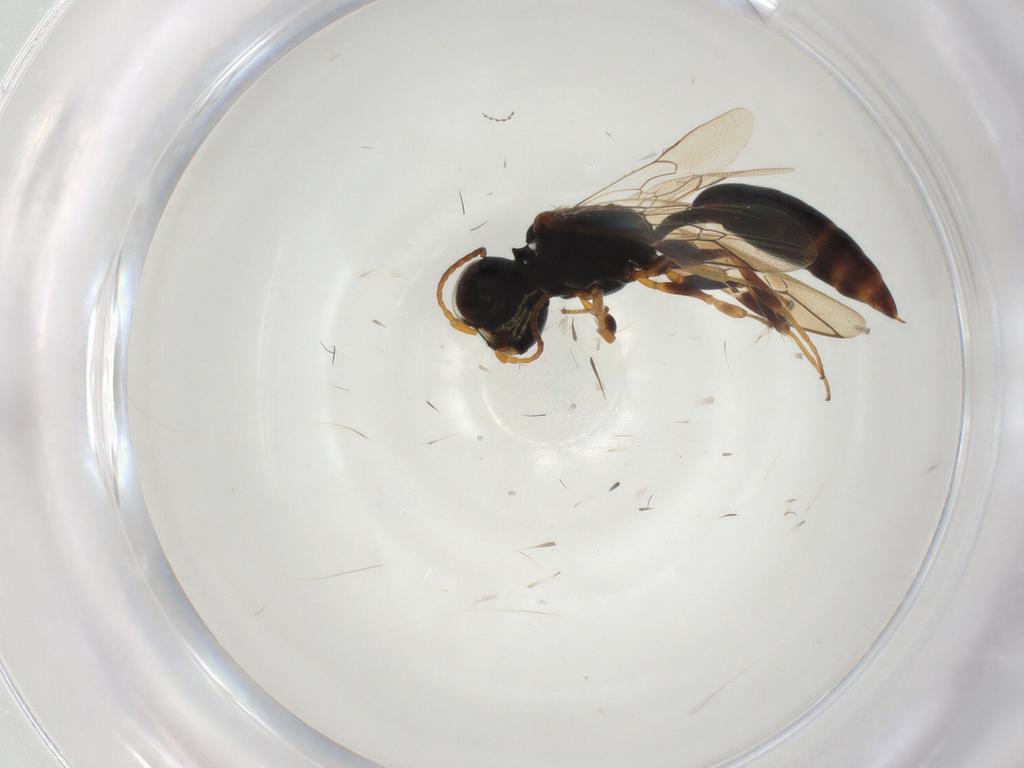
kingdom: Animalia
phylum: Arthropoda
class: Insecta
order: Hymenoptera
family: Pemphredonidae
